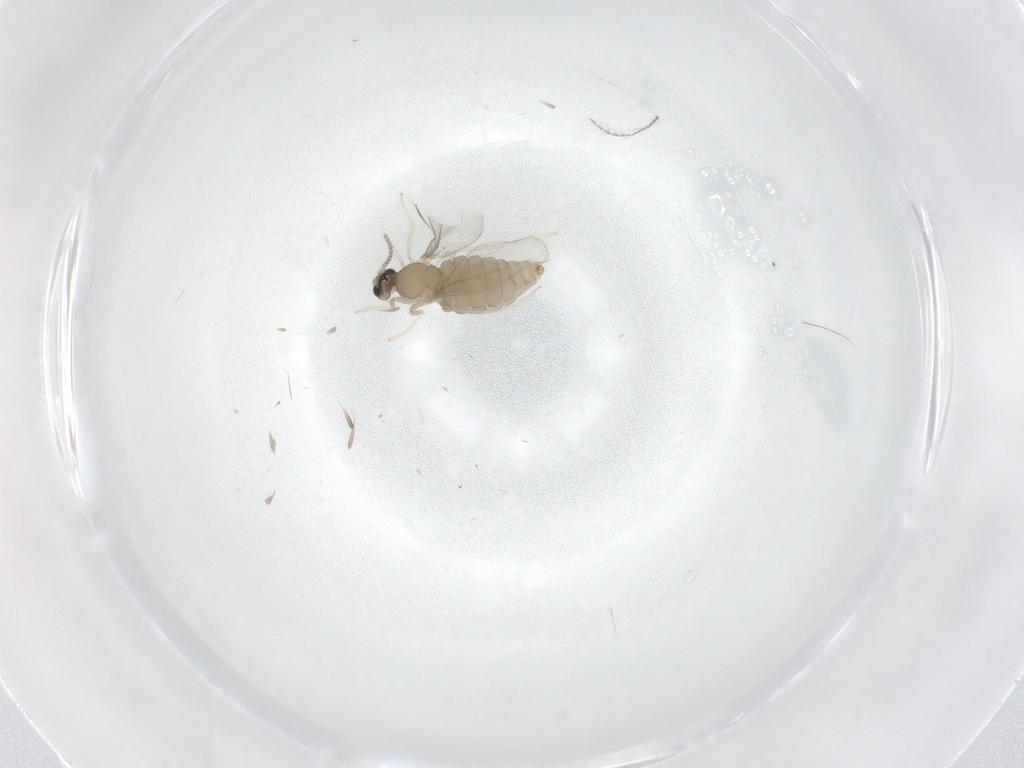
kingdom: Animalia
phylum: Arthropoda
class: Insecta
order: Diptera
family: Ceratopogonidae
